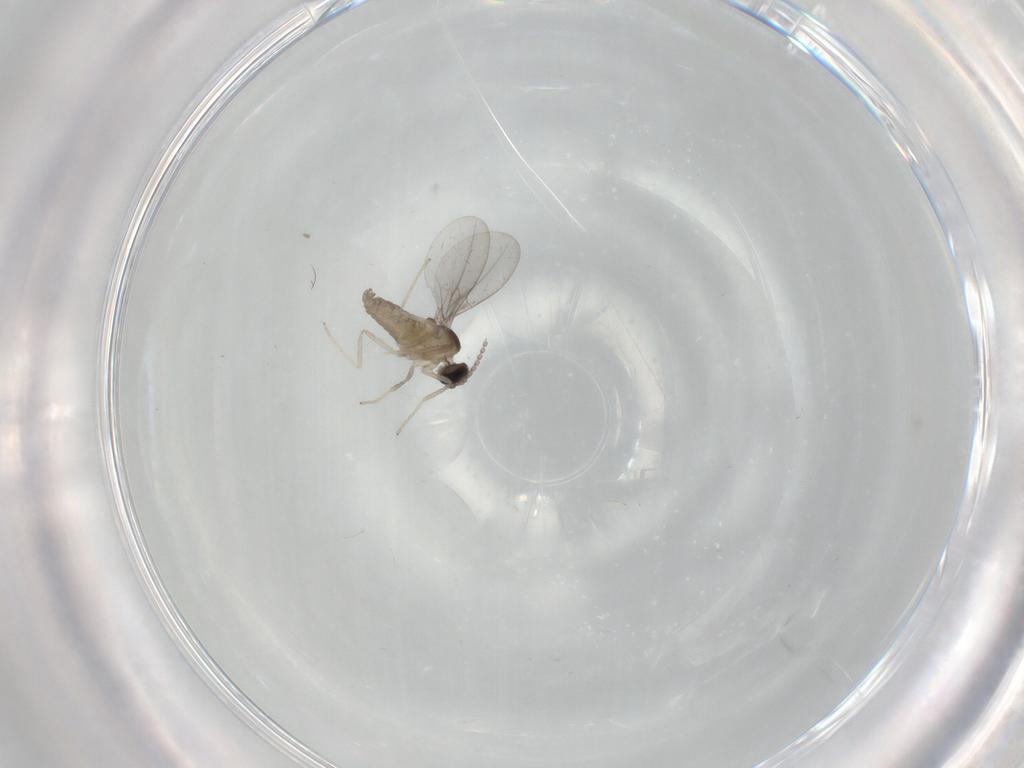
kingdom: Animalia
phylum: Arthropoda
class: Insecta
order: Diptera
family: Cecidomyiidae
